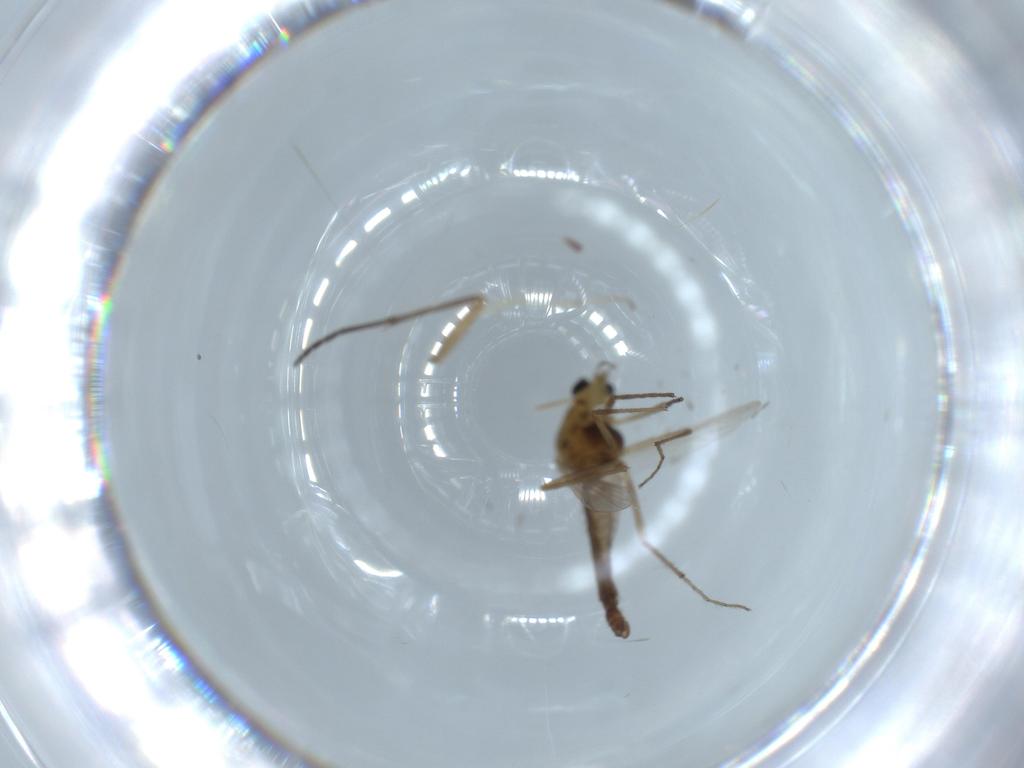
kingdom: Animalia
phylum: Arthropoda
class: Insecta
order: Diptera
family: Chironomidae
